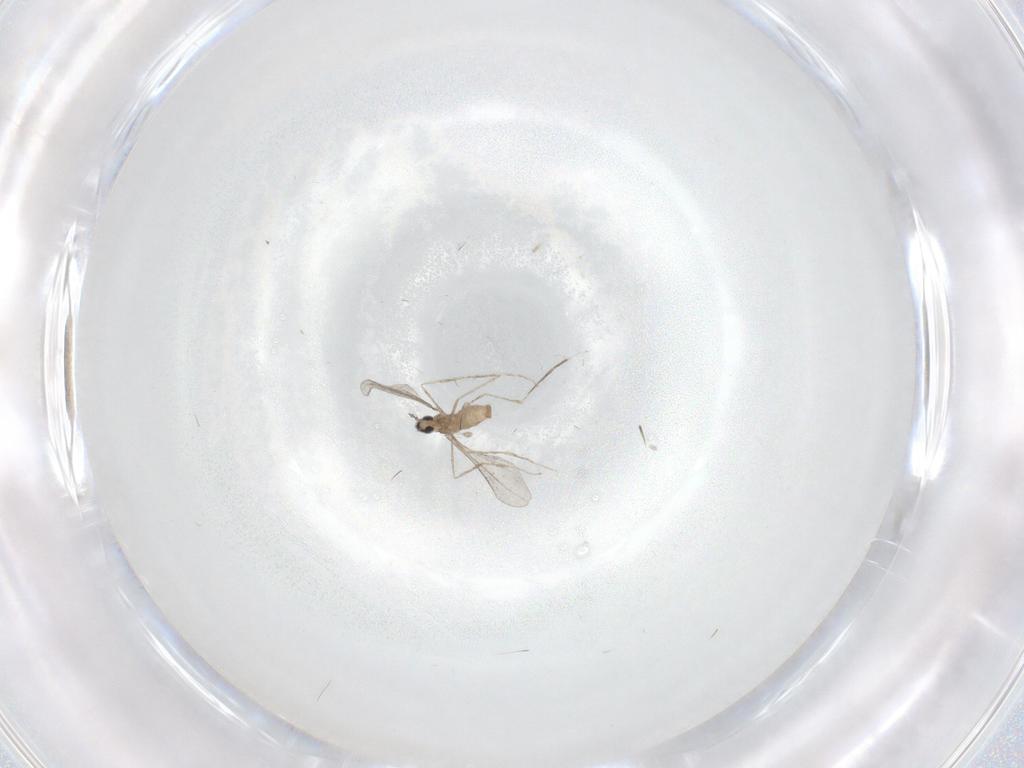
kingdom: Animalia
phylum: Arthropoda
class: Insecta
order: Diptera
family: Cecidomyiidae
